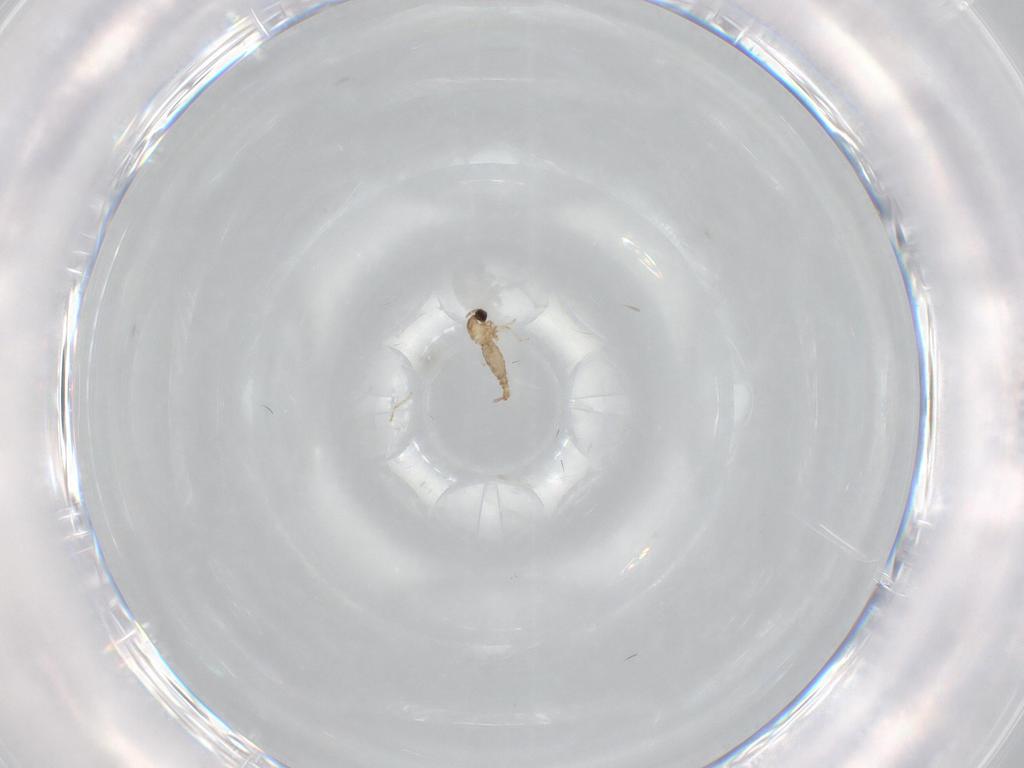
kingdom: Animalia
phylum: Arthropoda
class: Insecta
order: Diptera
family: Cecidomyiidae
